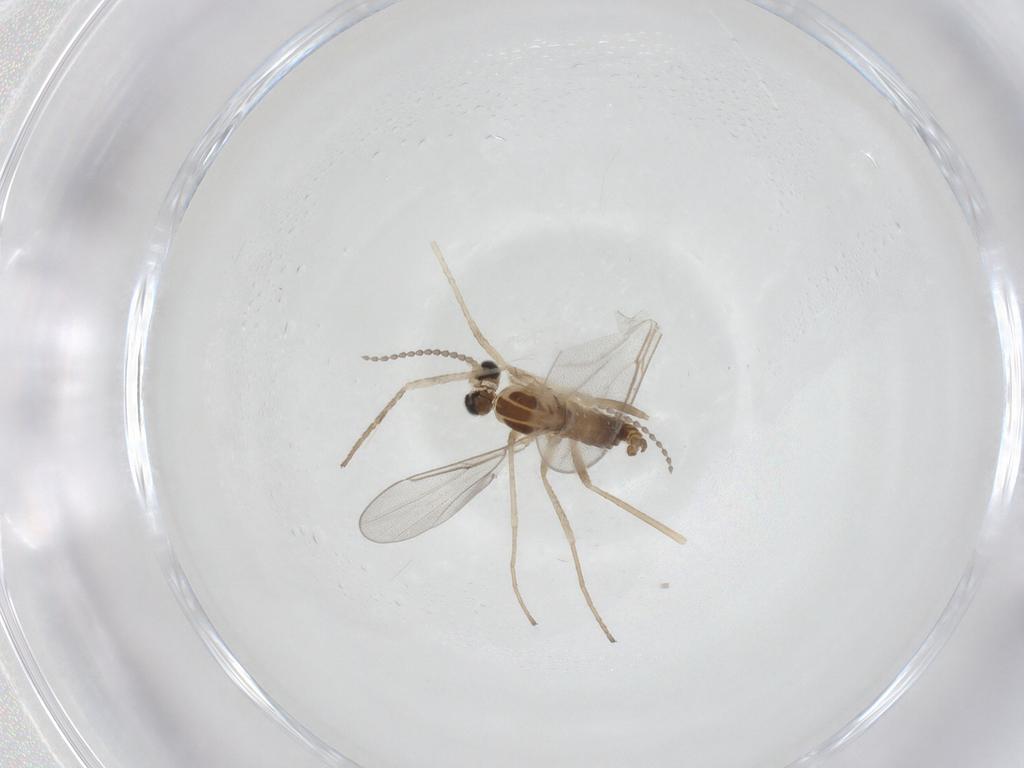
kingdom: Animalia
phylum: Arthropoda
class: Insecta
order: Diptera
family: Cecidomyiidae
